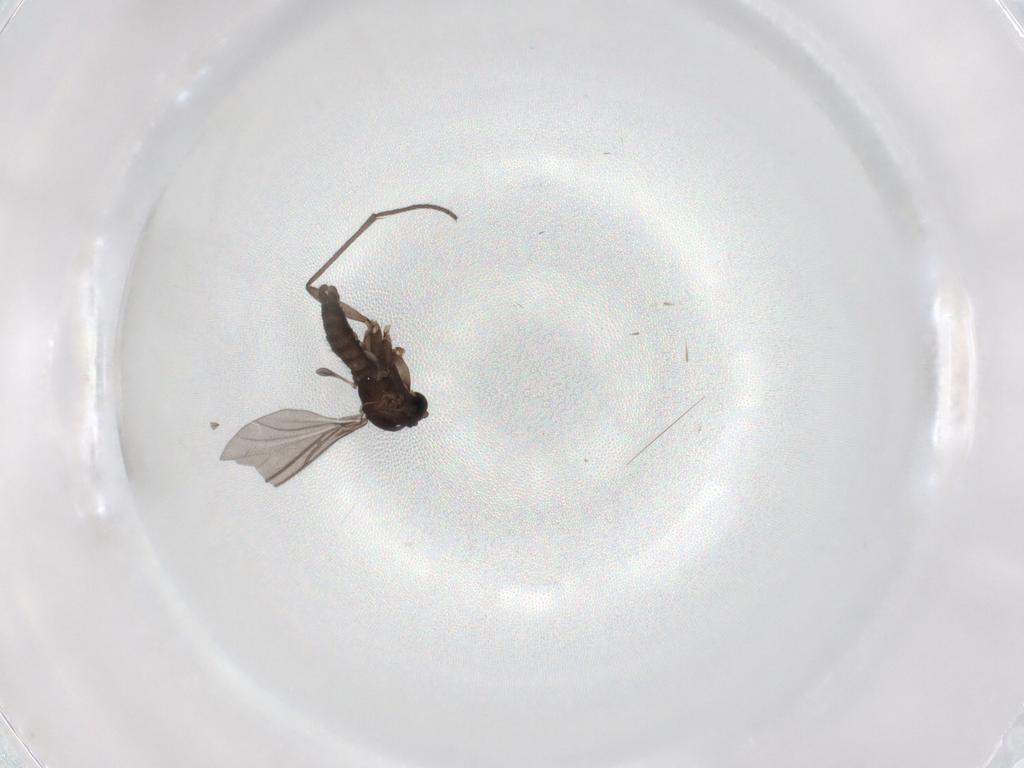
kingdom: Animalia
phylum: Arthropoda
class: Insecta
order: Diptera
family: Sciaridae
